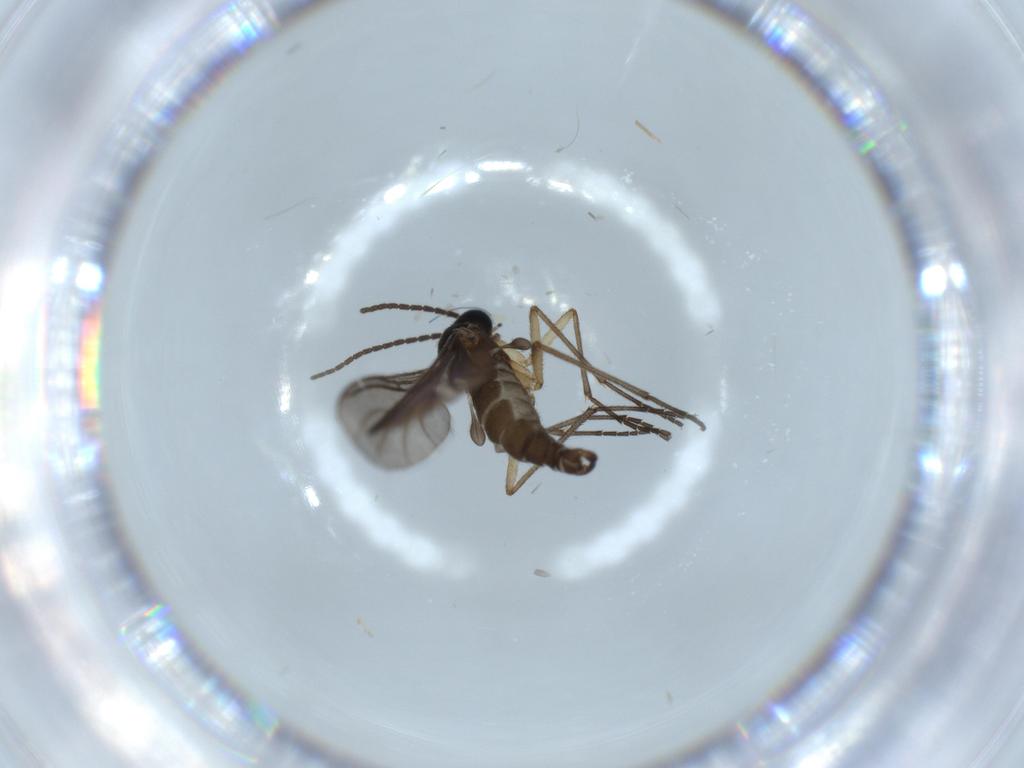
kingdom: Animalia
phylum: Arthropoda
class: Insecta
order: Diptera
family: Sciaridae
